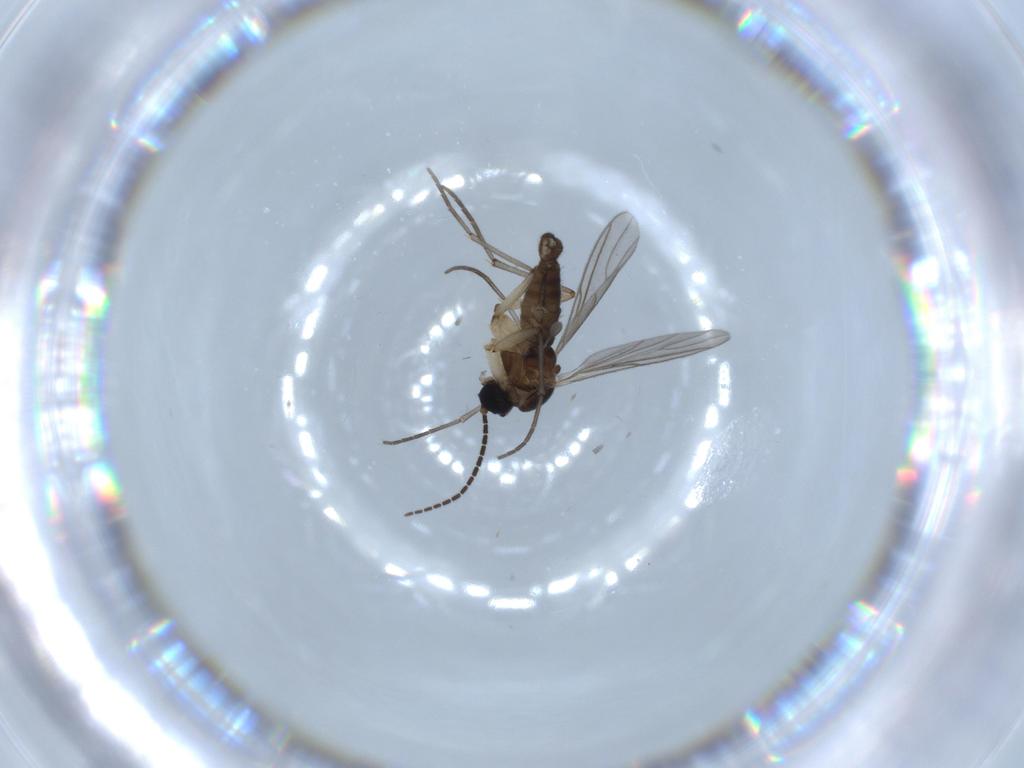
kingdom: Animalia
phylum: Arthropoda
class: Insecta
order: Diptera
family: Sciaridae
